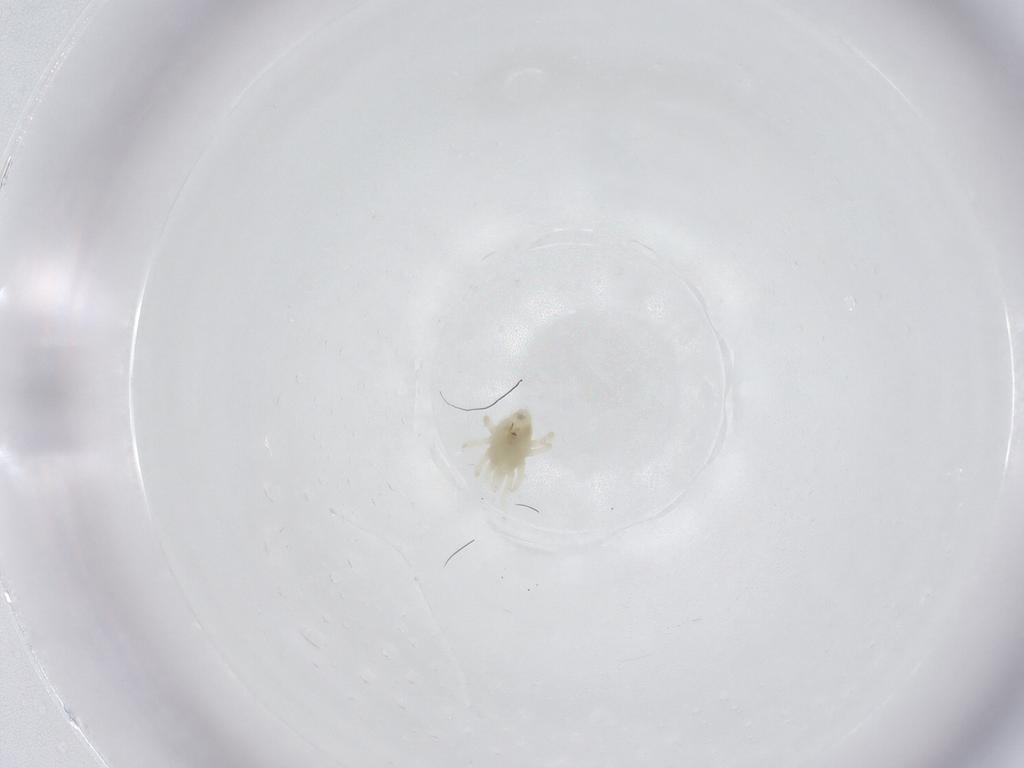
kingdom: Animalia
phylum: Arthropoda
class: Arachnida
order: Mesostigmata
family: Melicharidae
